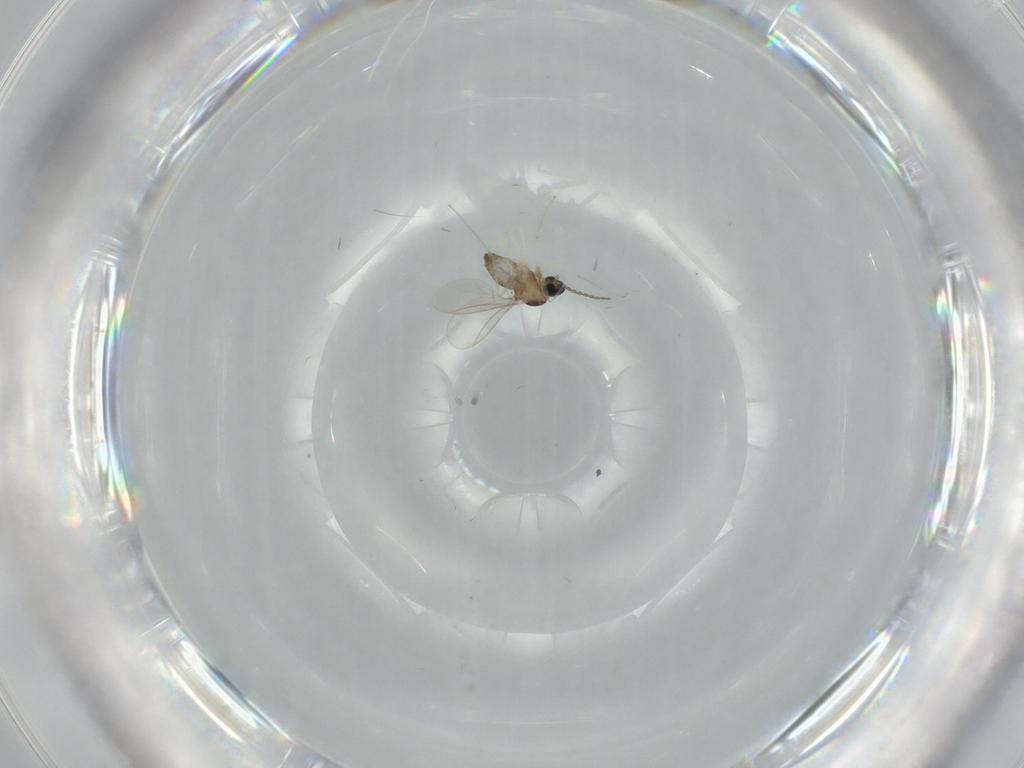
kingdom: Animalia
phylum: Arthropoda
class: Insecta
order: Diptera
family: Cecidomyiidae
